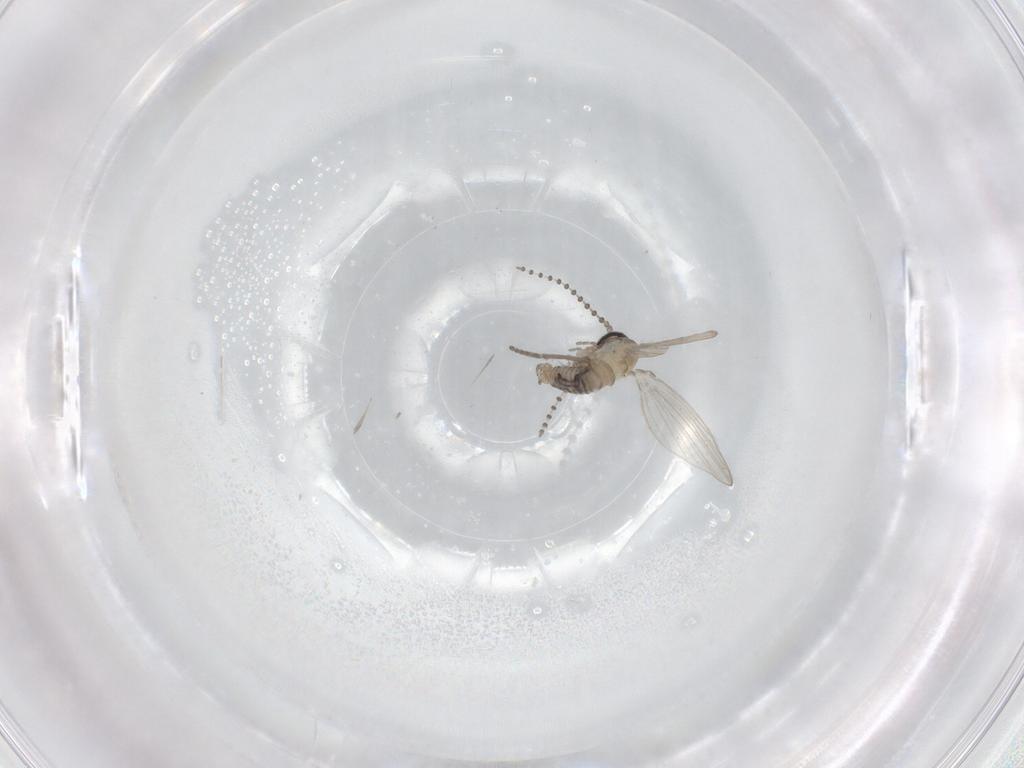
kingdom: Animalia
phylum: Arthropoda
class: Insecta
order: Diptera
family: Psychodidae
